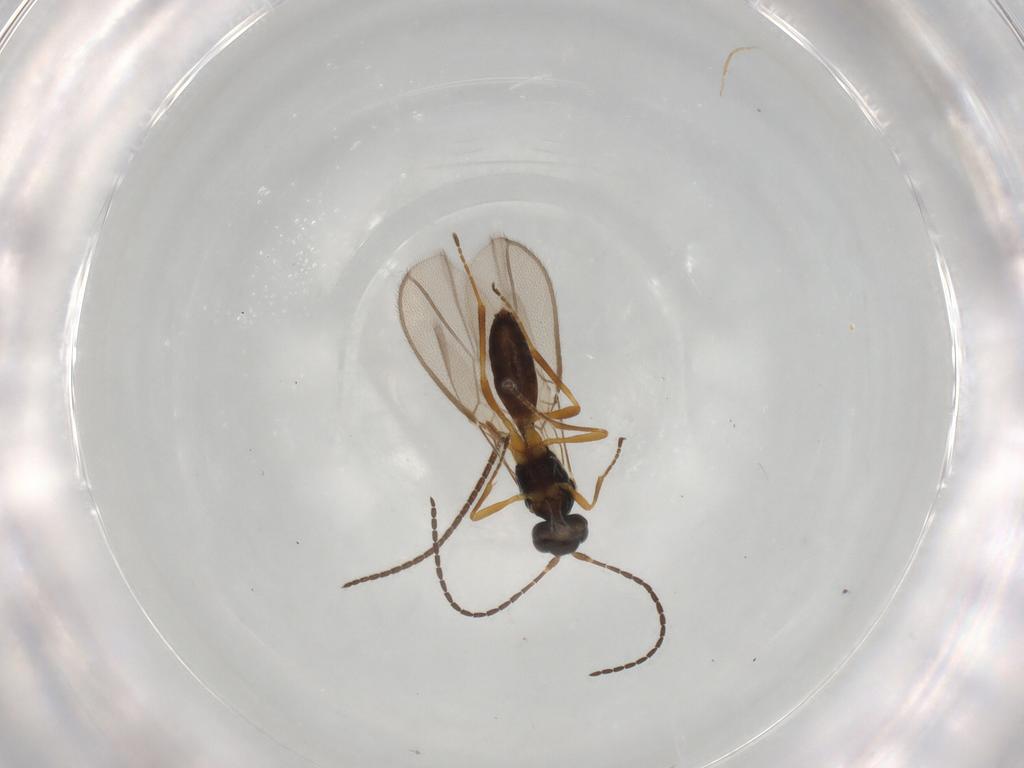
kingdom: Animalia
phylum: Arthropoda
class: Insecta
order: Hymenoptera
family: Braconidae
